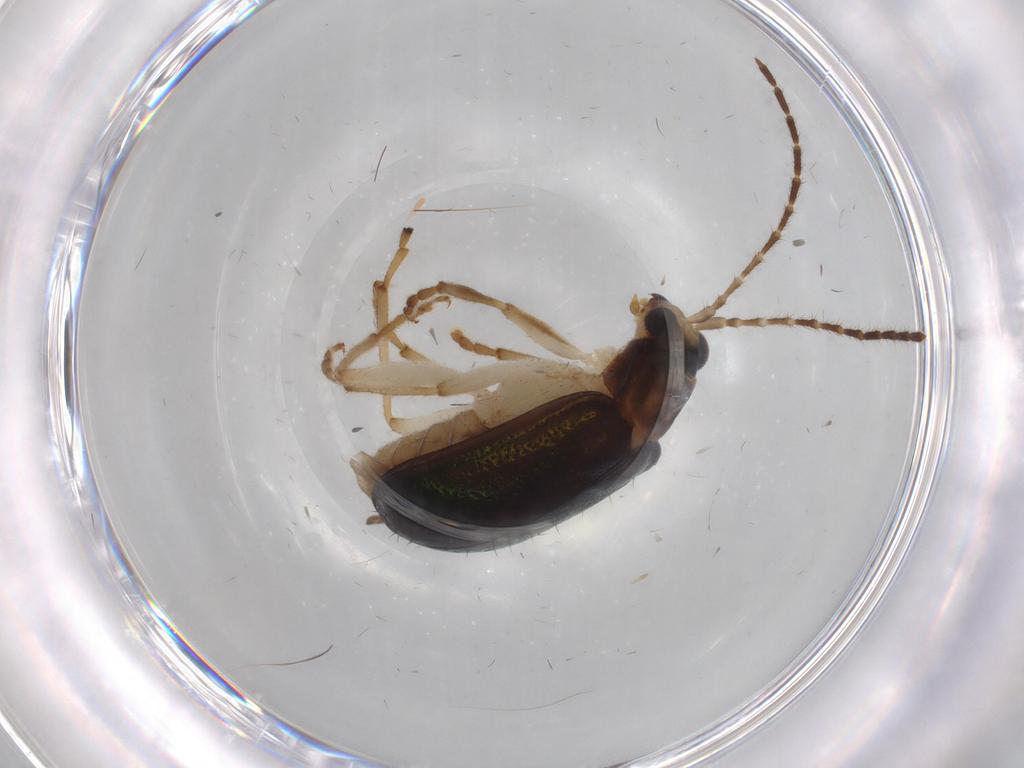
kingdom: Animalia
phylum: Arthropoda
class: Insecta
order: Coleoptera
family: Chrysomelidae
